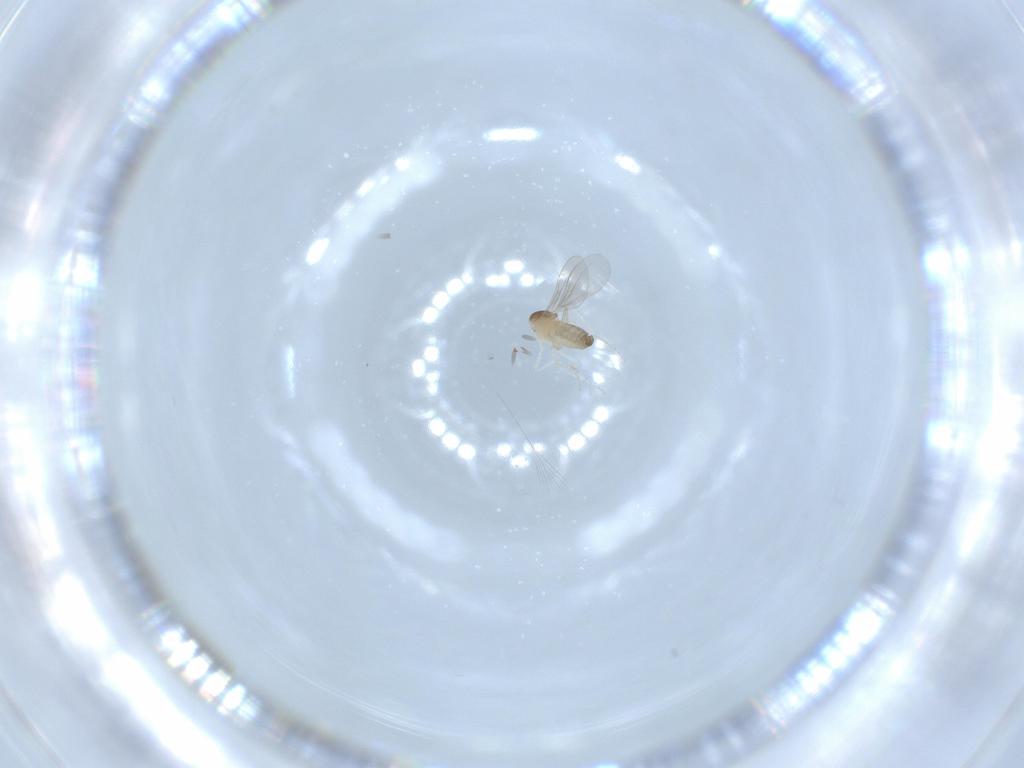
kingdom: Animalia
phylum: Arthropoda
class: Insecta
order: Diptera
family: Cecidomyiidae
